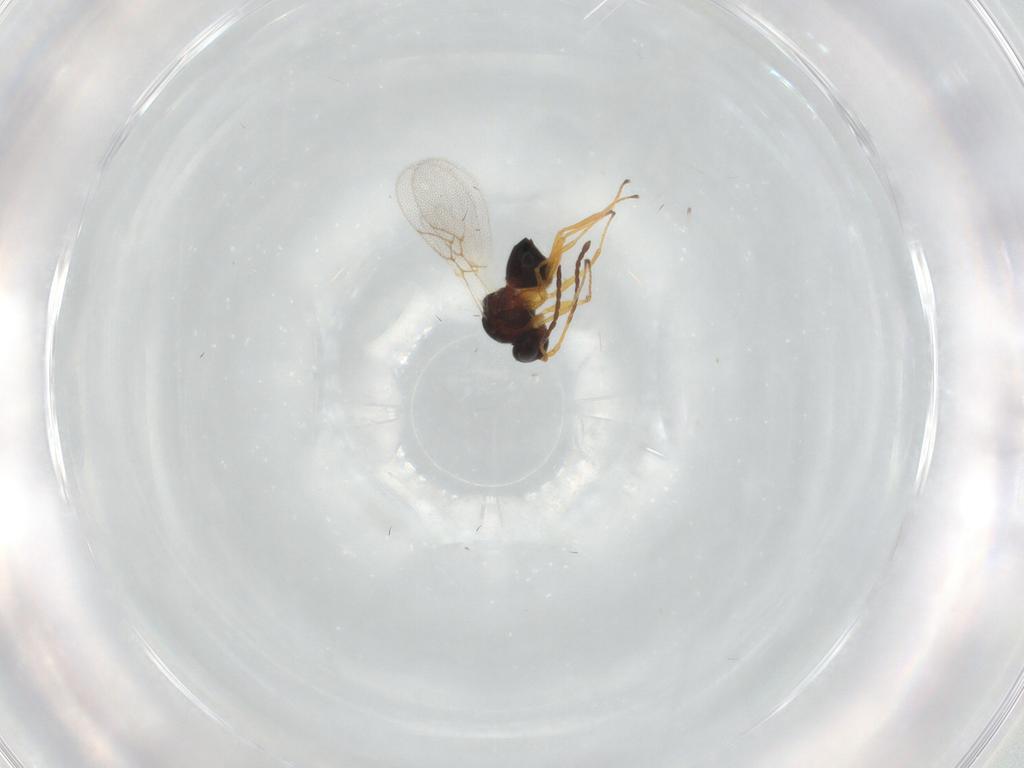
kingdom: Animalia
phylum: Arthropoda
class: Insecta
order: Hymenoptera
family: Figitidae
